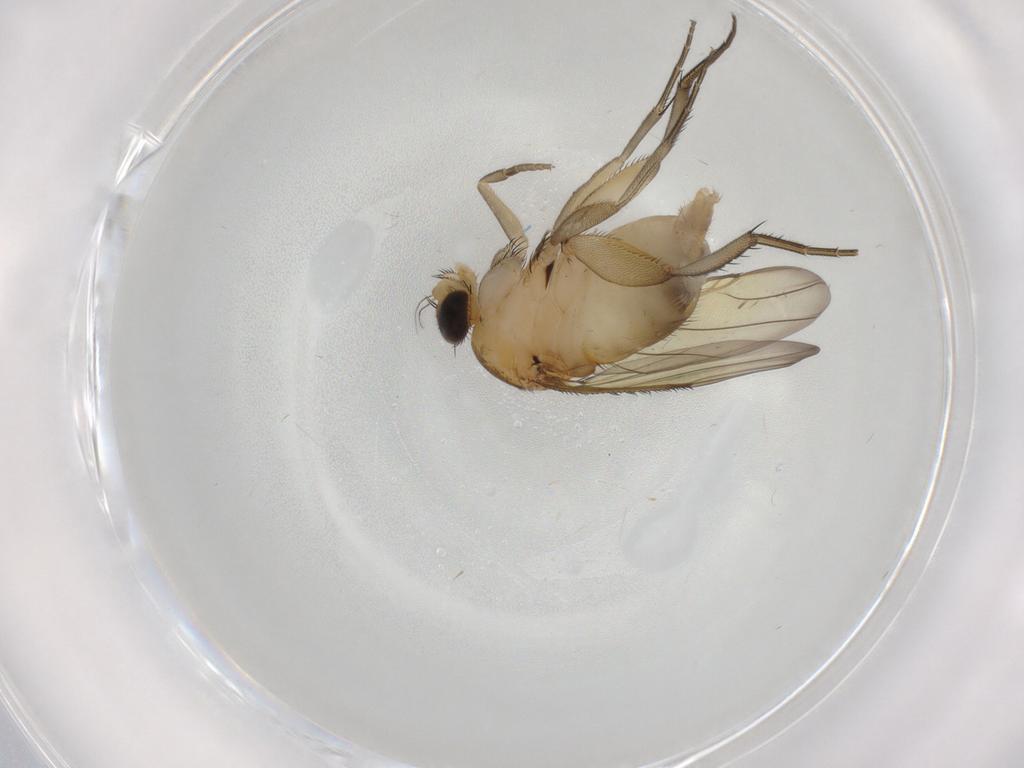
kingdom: Animalia
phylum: Arthropoda
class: Insecta
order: Diptera
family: Phoridae
